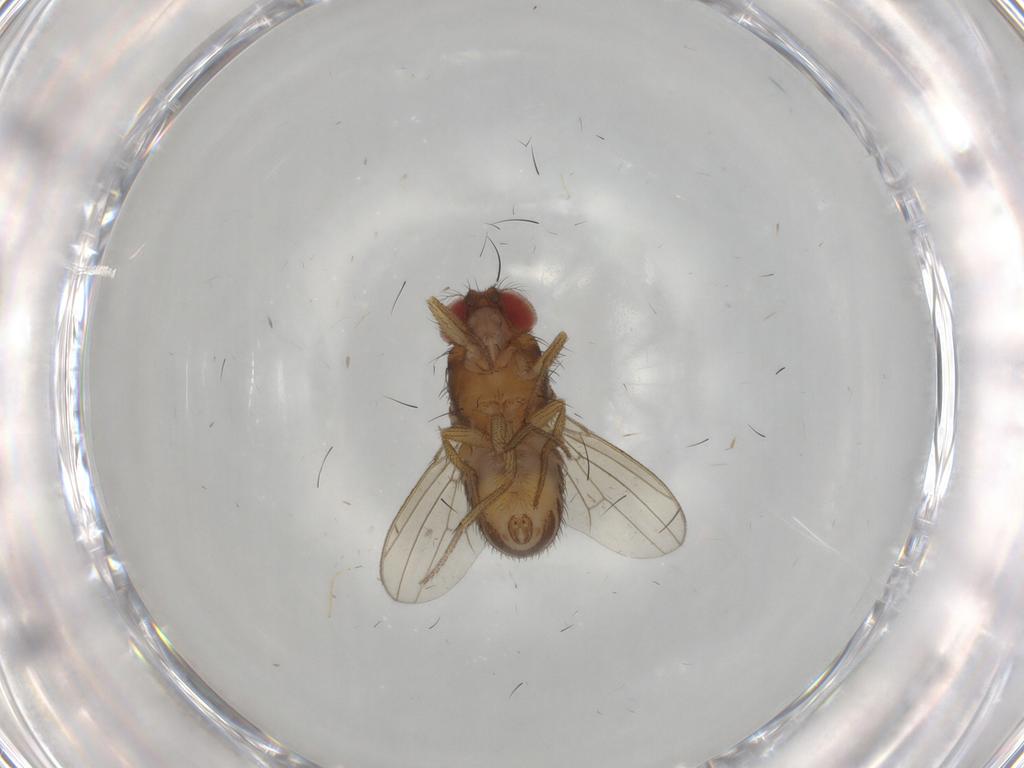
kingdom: Animalia
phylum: Arthropoda
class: Insecta
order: Diptera
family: Drosophilidae
